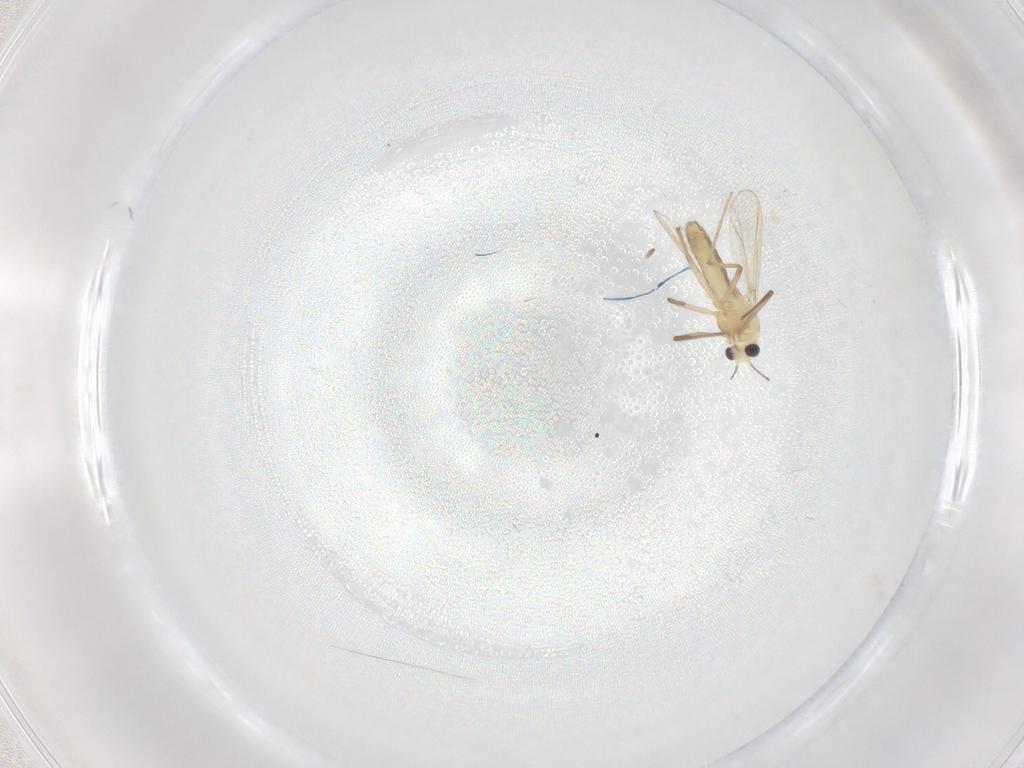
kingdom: Animalia
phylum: Arthropoda
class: Insecta
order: Diptera
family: Chironomidae
